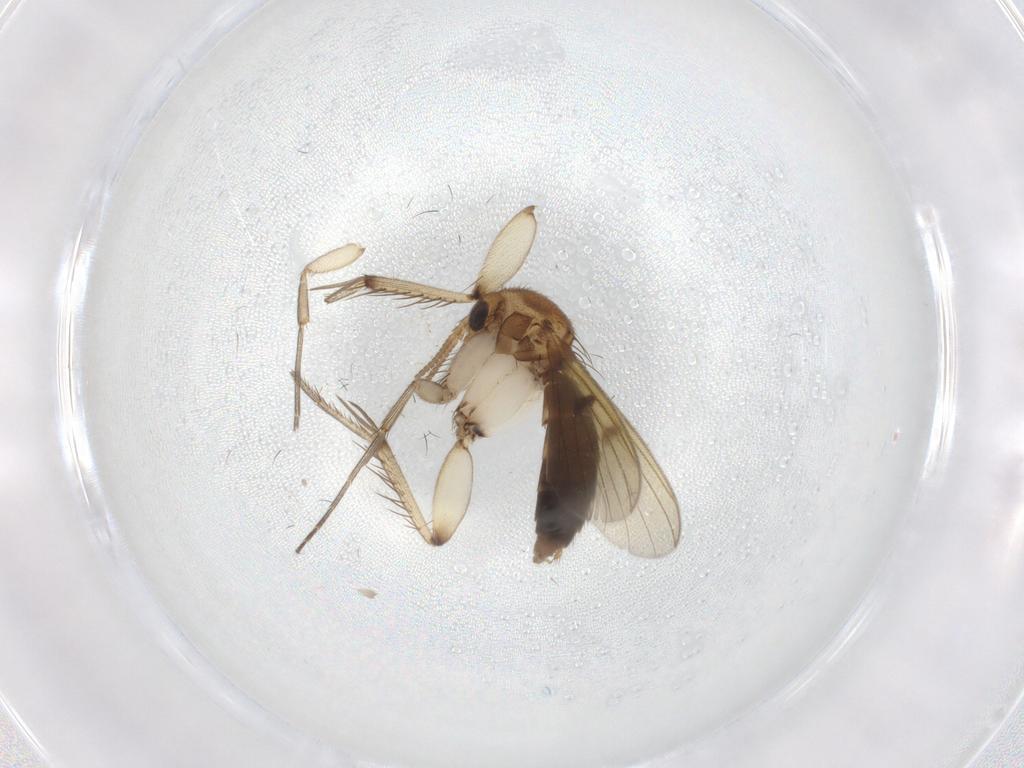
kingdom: Animalia
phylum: Arthropoda
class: Insecta
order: Diptera
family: Mycetophilidae
